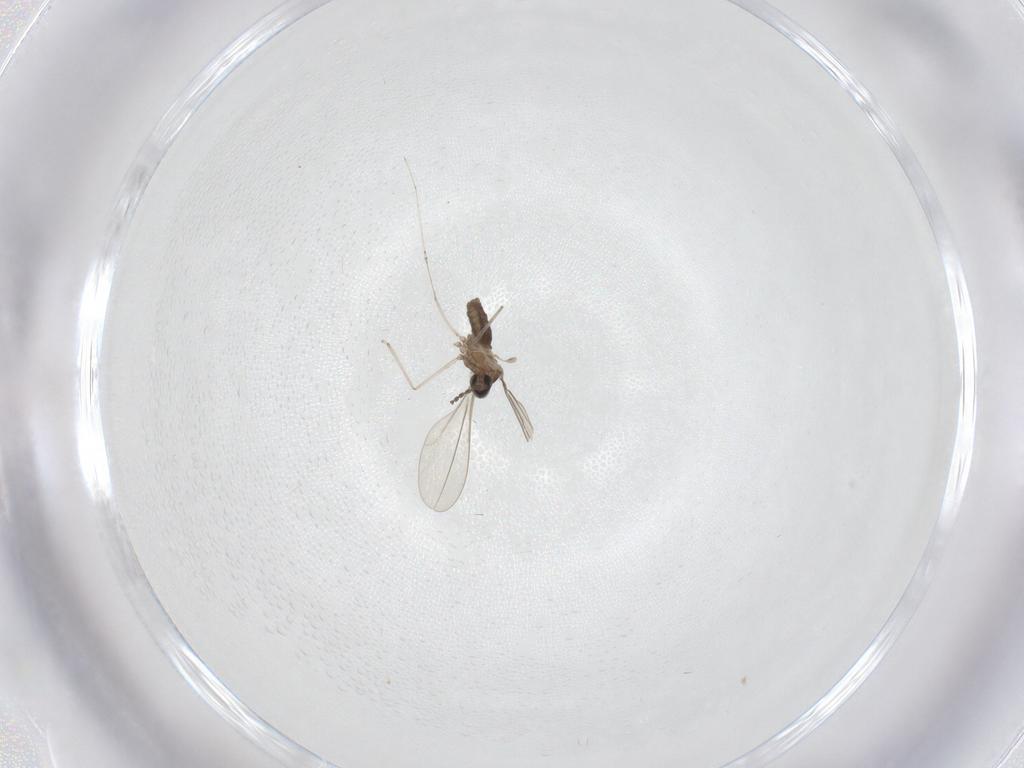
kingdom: Animalia
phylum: Arthropoda
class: Insecta
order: Diptera
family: Cecidomyiidae
